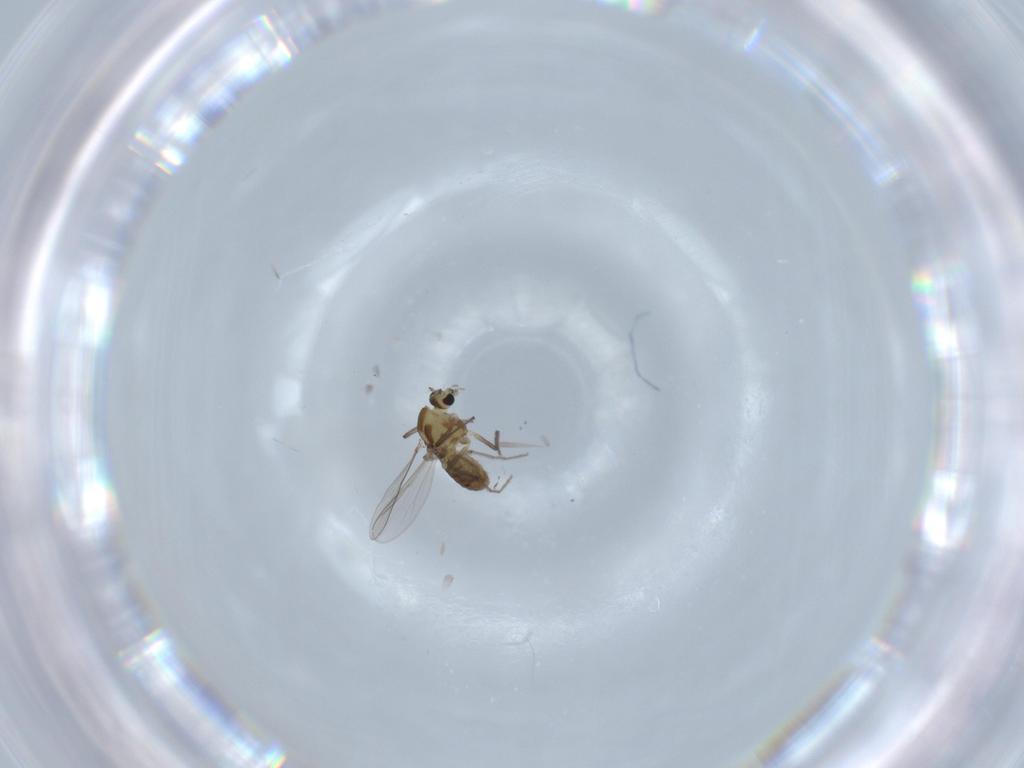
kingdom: Animalia
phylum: Arthropoda
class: Insecta
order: Diptera
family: Chironomidae
